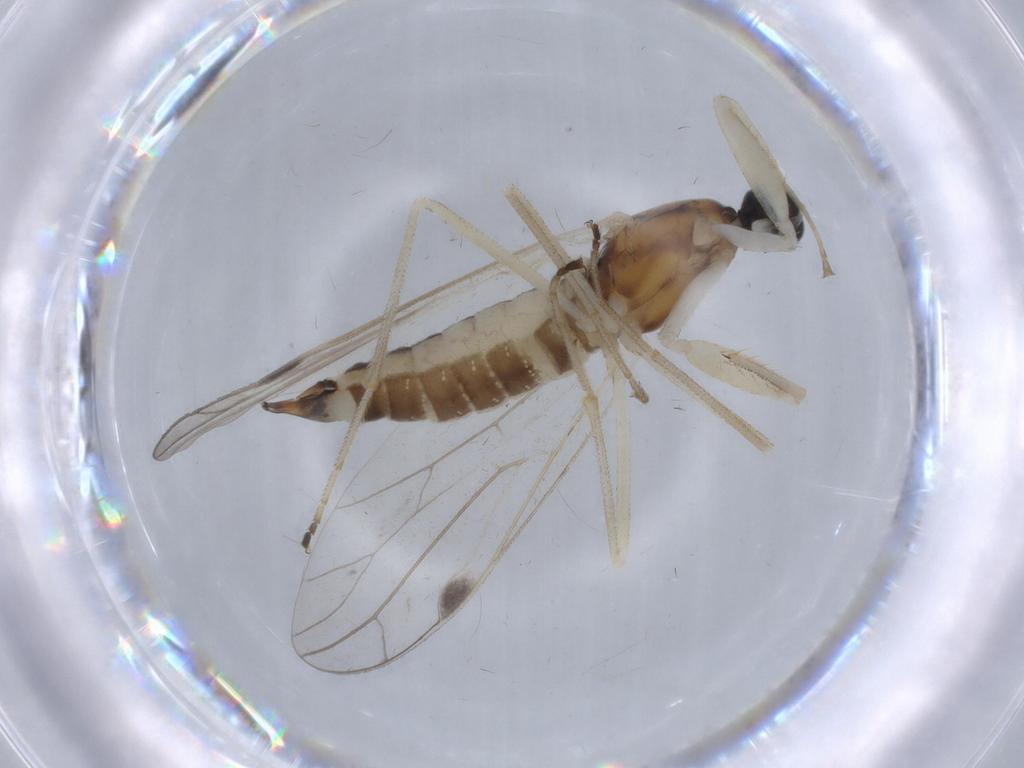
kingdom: Animalia
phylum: Arthropoda
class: Insecta
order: Diptera
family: Empididae
